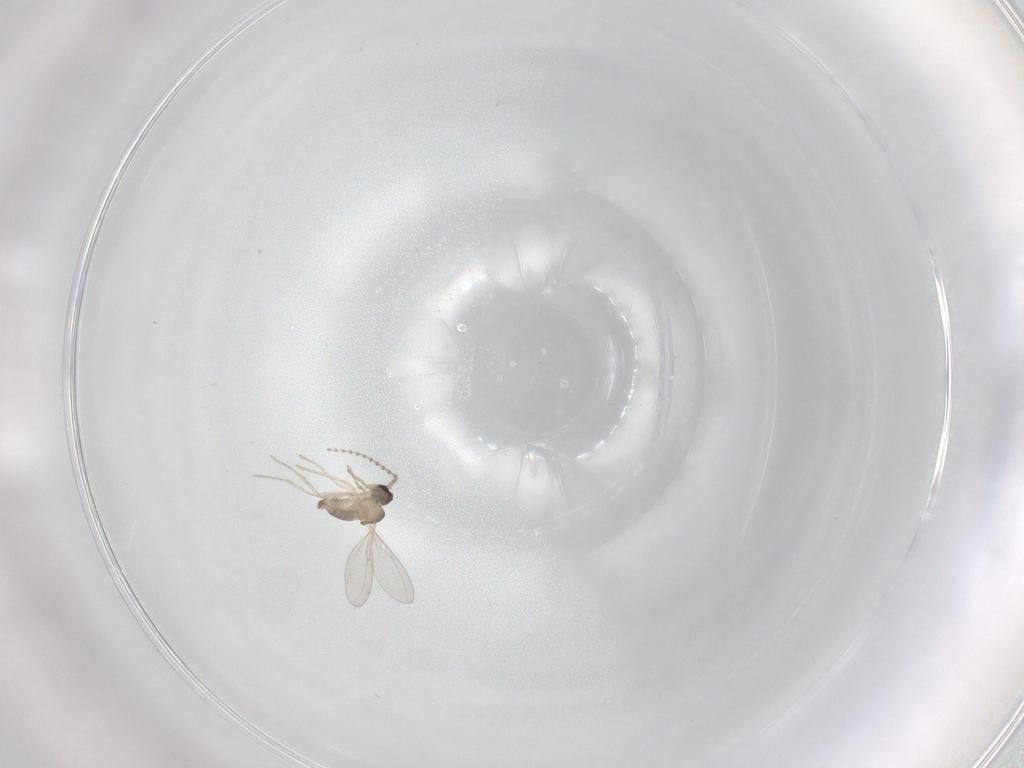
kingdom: Animalia
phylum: Arthropoda
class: Insecta
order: Diptera
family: Cecidomyiidae
